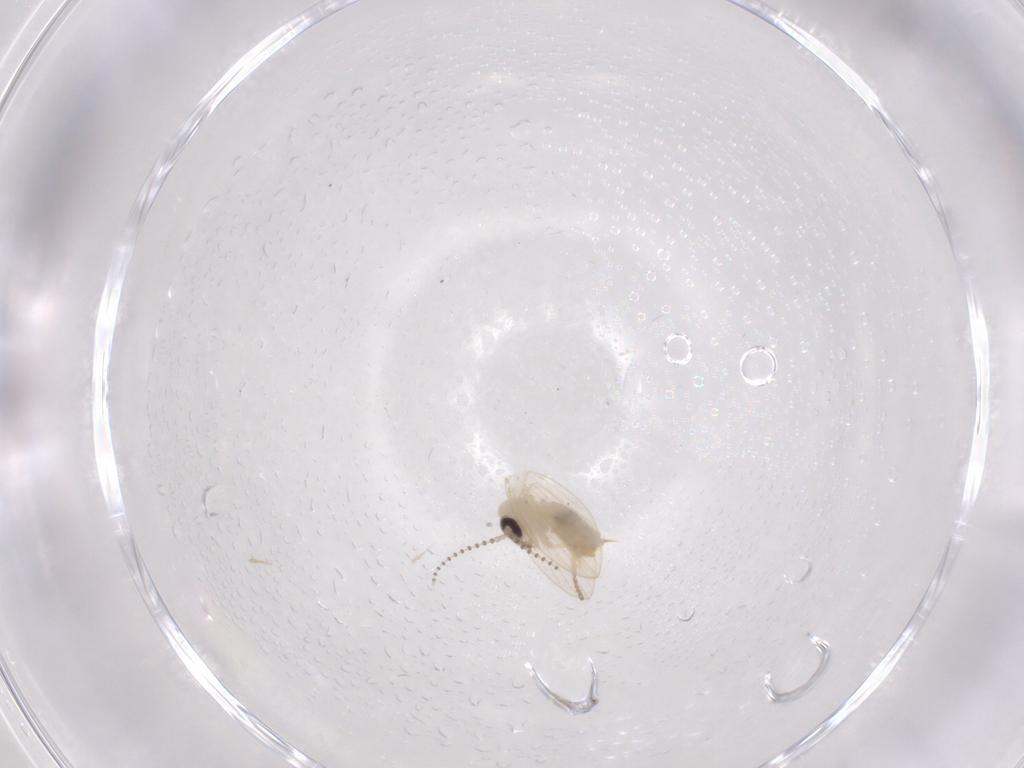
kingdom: Animalia
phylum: Arthropoda
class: Insecta
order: Diptera
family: Psychodidae
